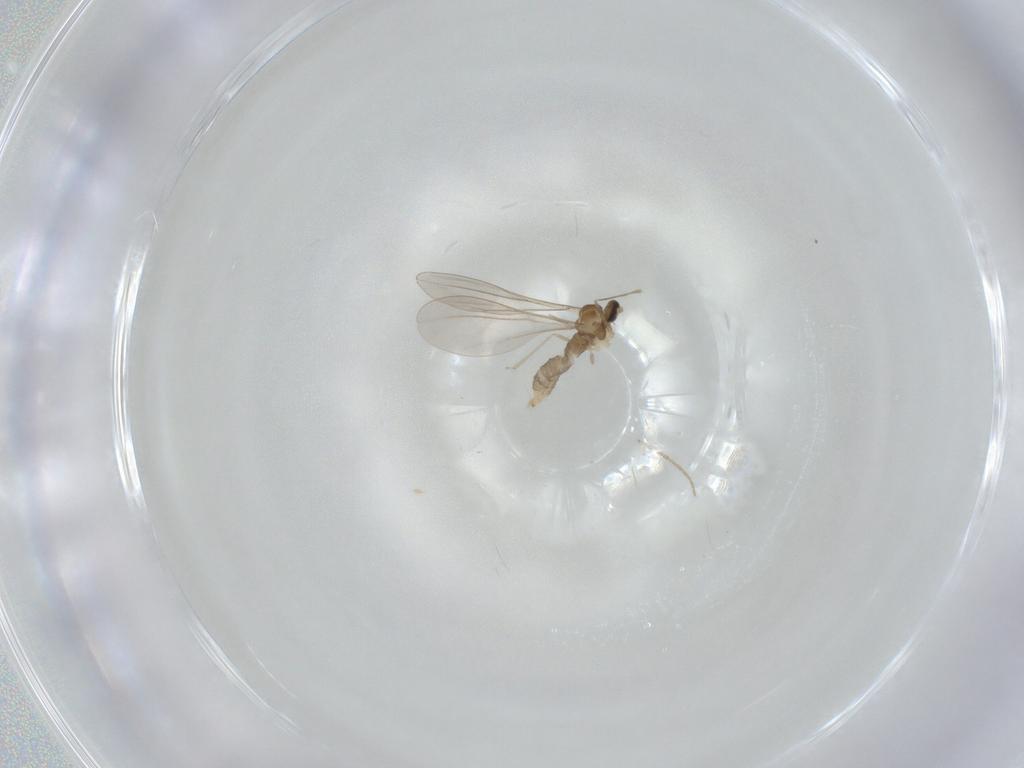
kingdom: Animalia
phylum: Arthropoda
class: Insecta
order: Diptera
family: Cecidomyiidae
